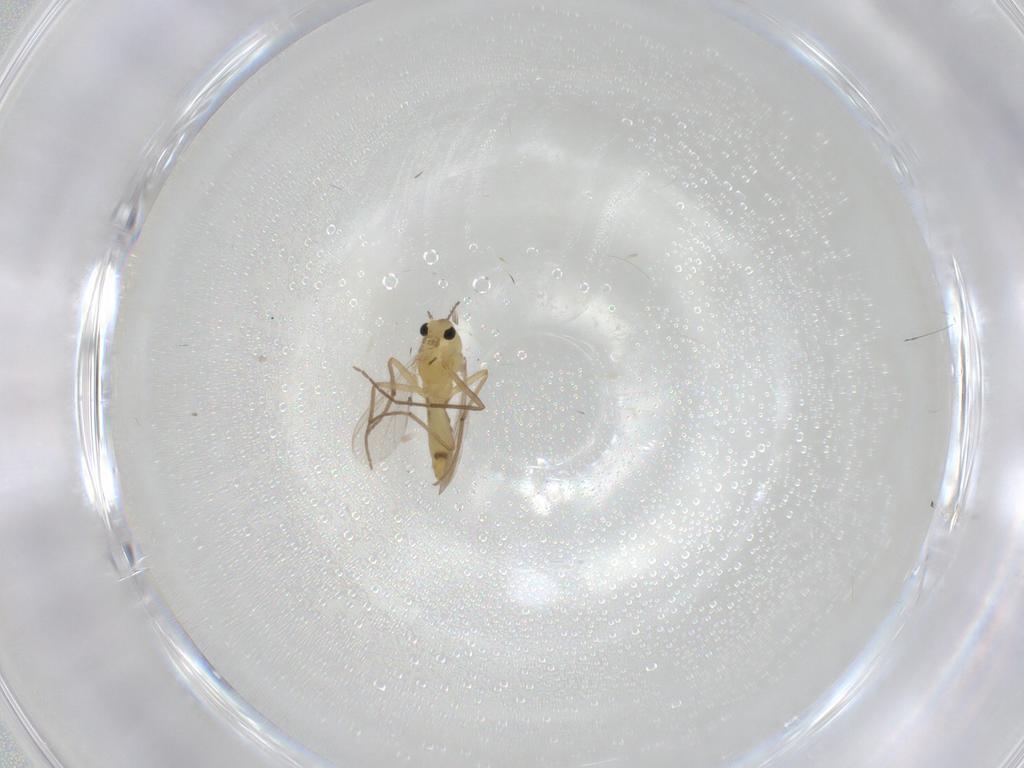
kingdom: Animalia
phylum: Arthropoda
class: Insecta
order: Diptera
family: Chironomidae
